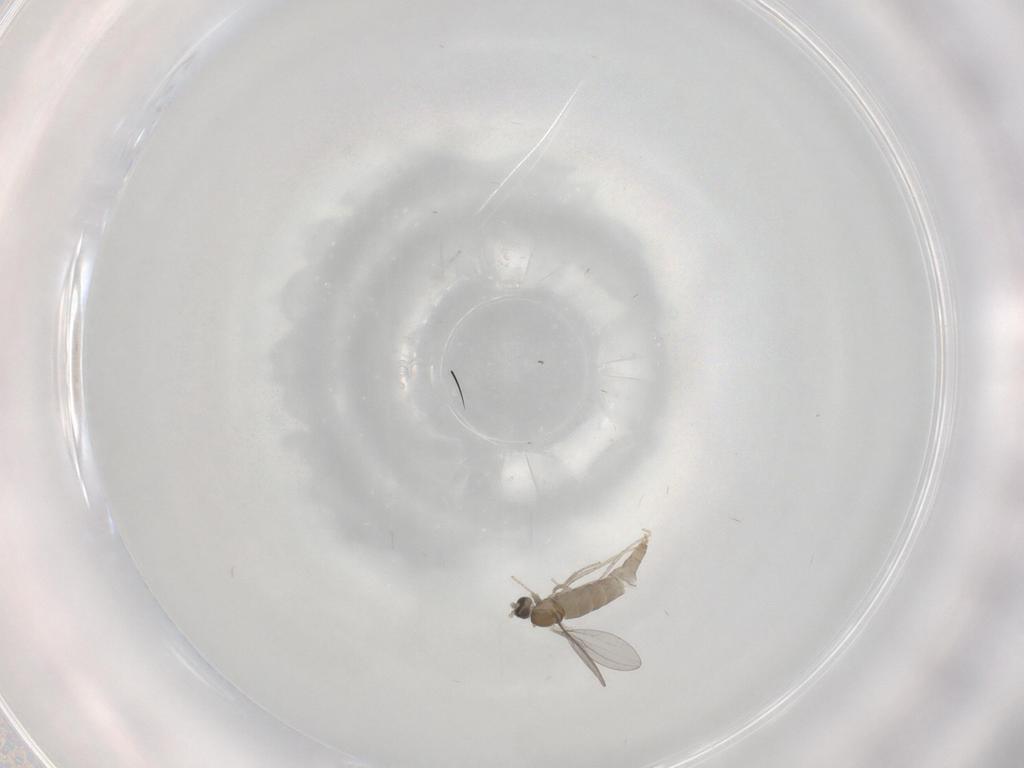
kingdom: Animalia
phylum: Arthropoda
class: Insecta
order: Diptera
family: Cecidomyiidae
